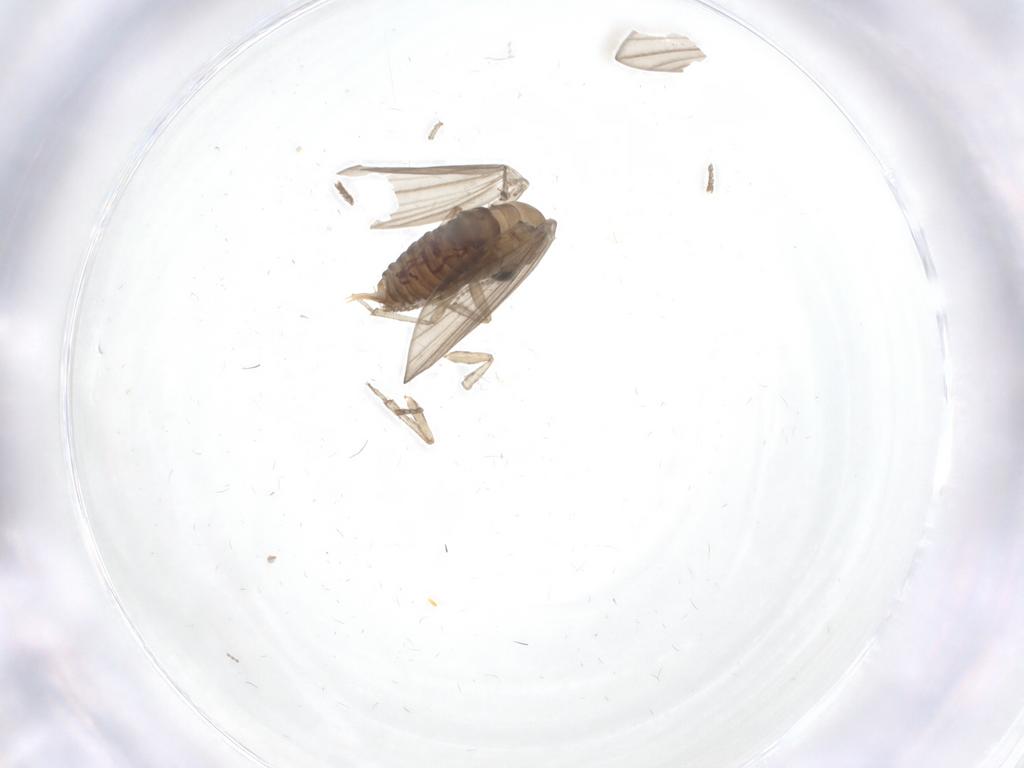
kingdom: Animalia
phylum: Arthropoda
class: Insecta
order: Diptera
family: Psychodidae
